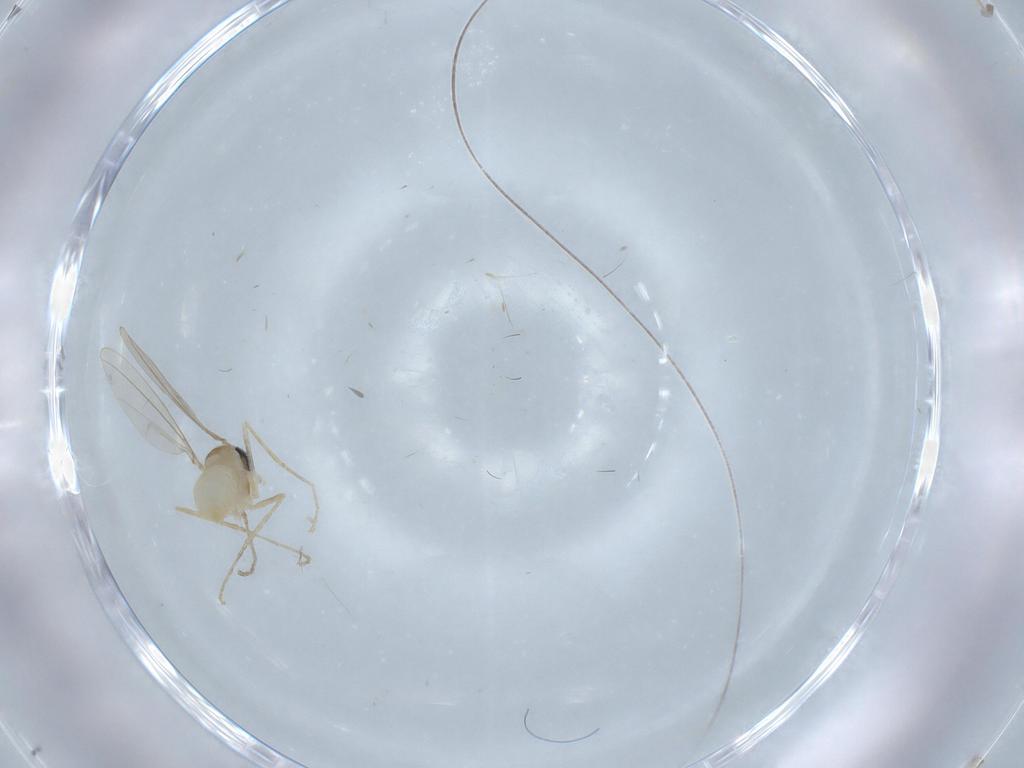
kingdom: Animalia
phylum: Arthropoda
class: Insecta
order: Diptera
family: Cecidomyiidae
